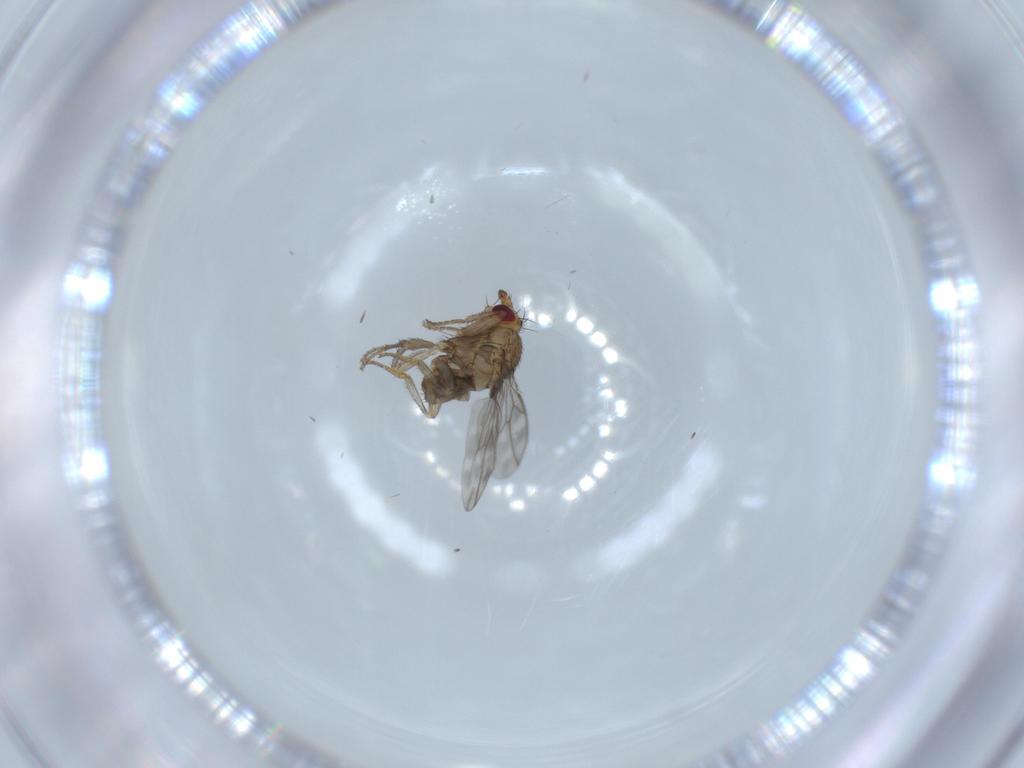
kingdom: Animalia
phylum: Arthropoda
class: Insecta
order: Diptera
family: Sphaeroceridae
